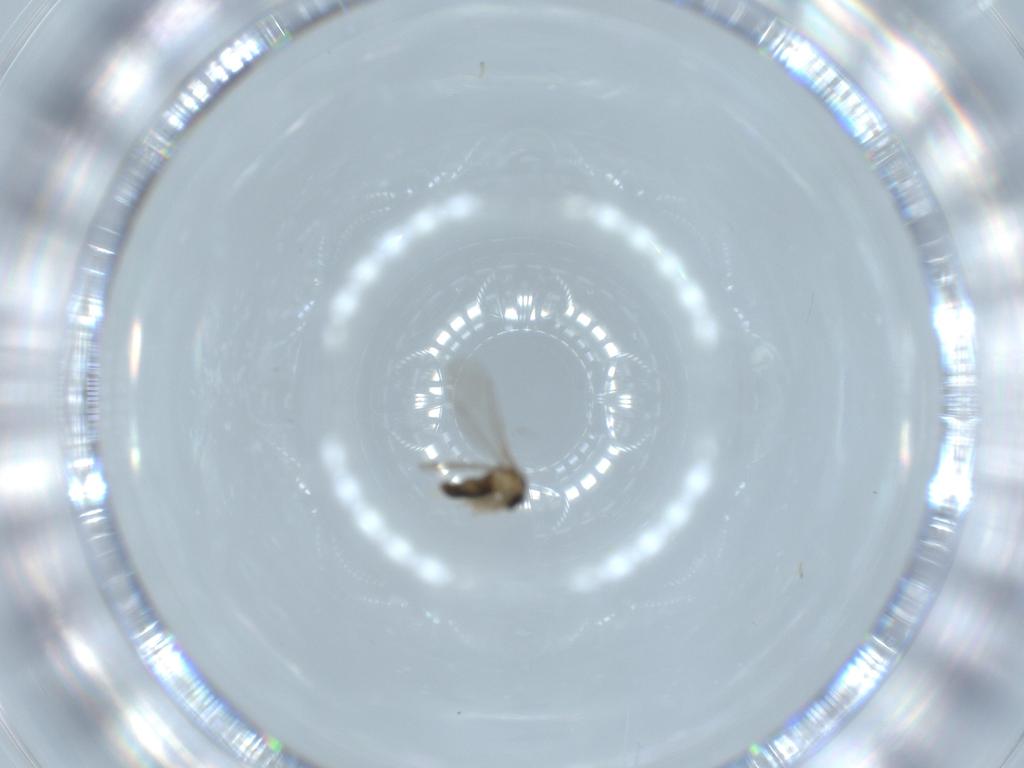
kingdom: Animalia
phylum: Arthropoda
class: Insecta
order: Diptera
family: Cecidomyiidae
